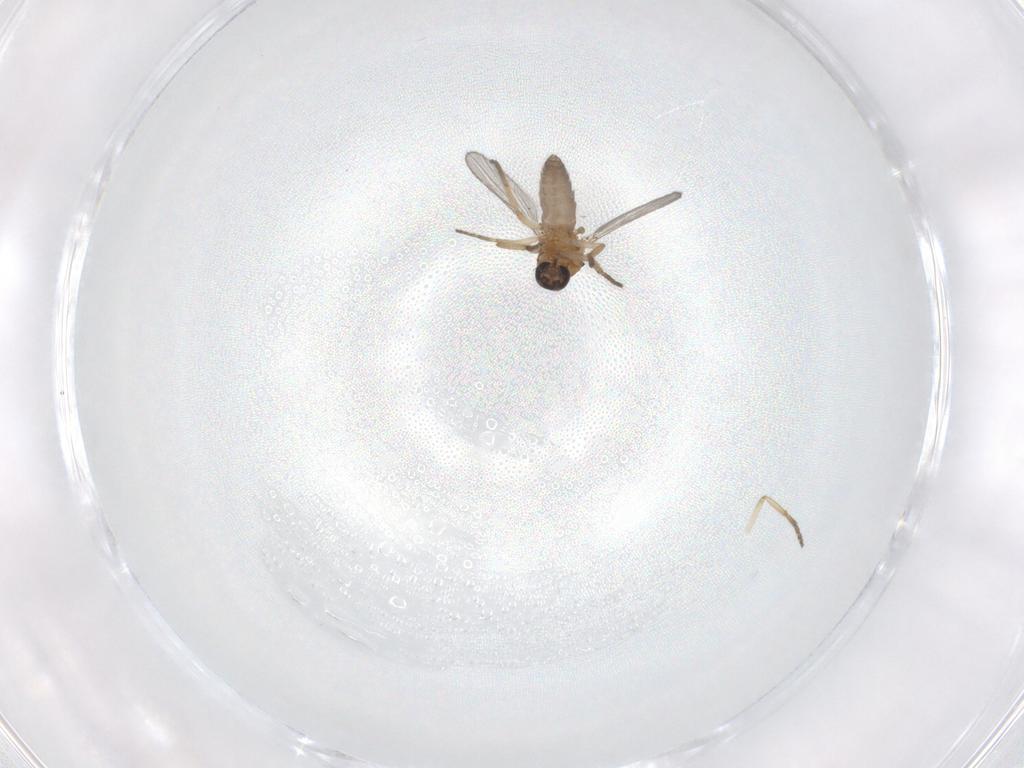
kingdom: Animalia
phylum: Arthropoda
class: Insecta
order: Diptera
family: Ceratopogonidae
